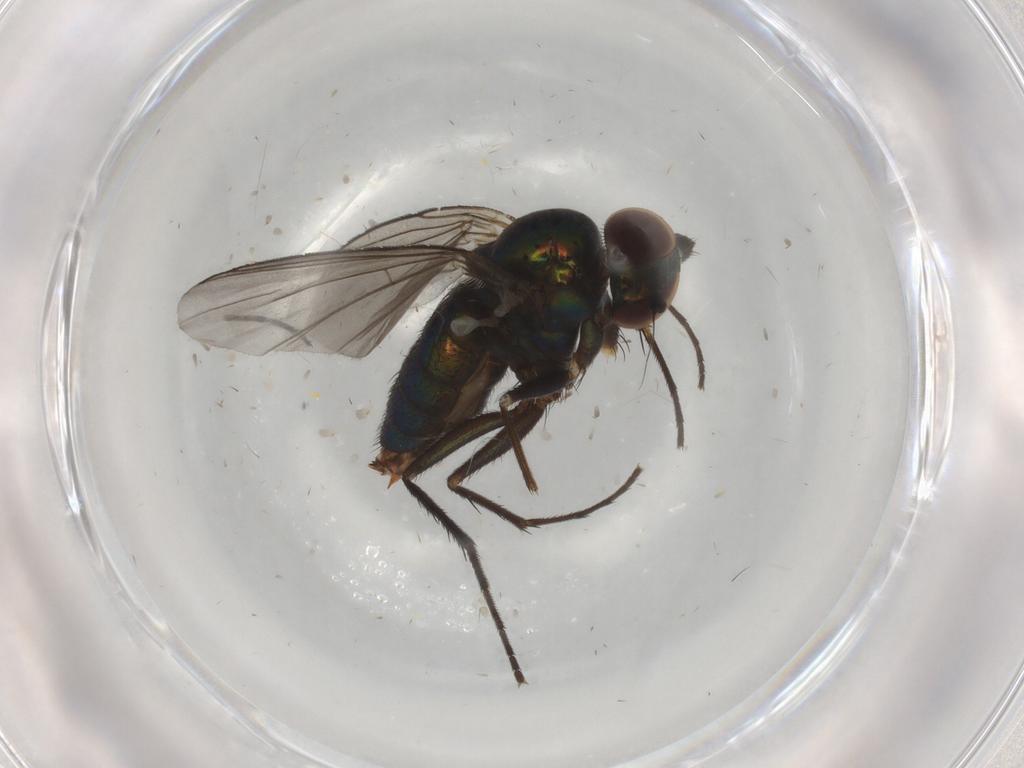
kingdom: Animalia
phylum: Arthropoda
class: Insecta
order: Diptera
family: Dolichopodidae
